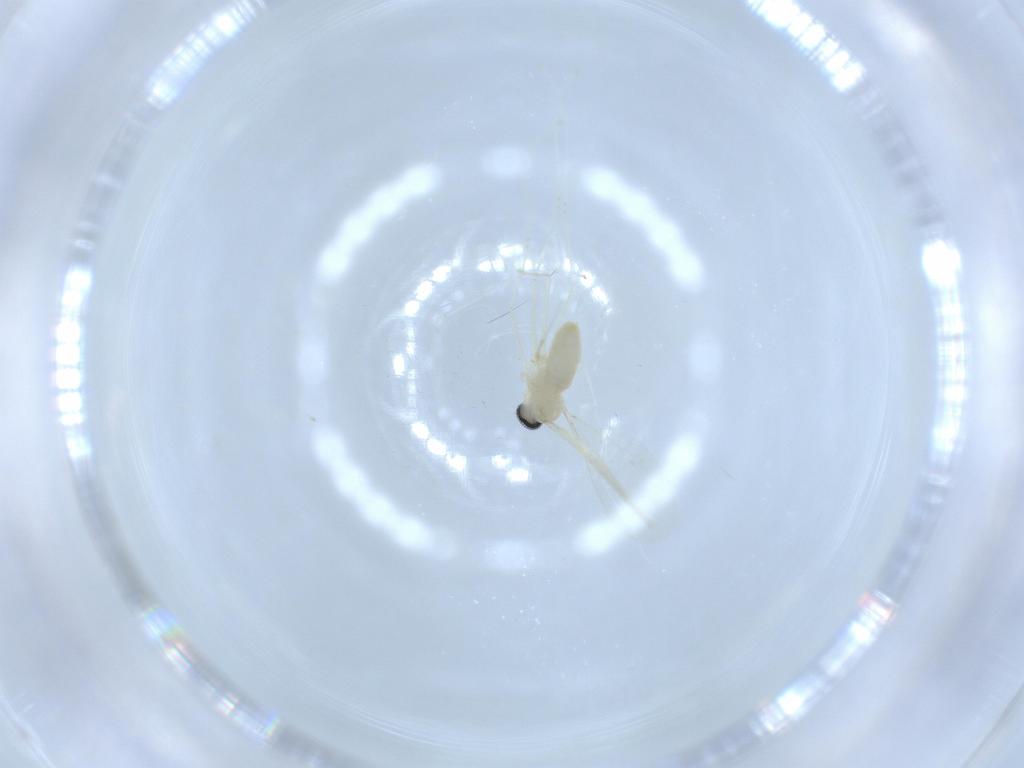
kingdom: Animalia
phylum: Arthropoda
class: Insecta
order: Diptera
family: Cecidomyiidae
